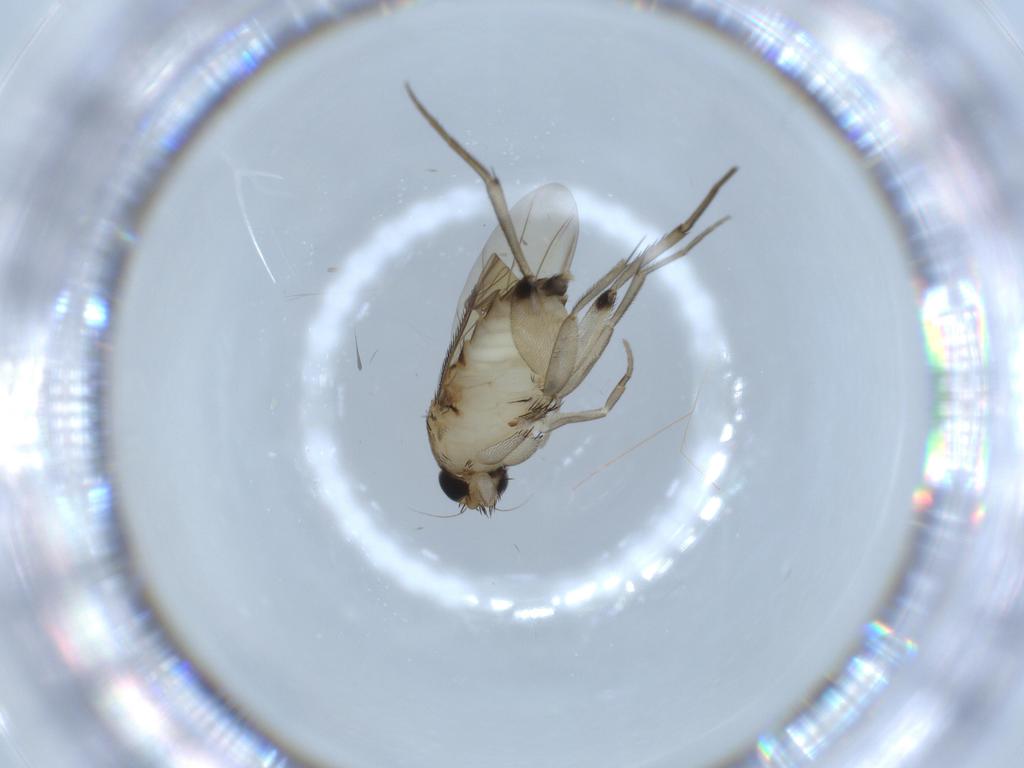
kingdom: Animalia
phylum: Arthropoda
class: Insecta
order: Diptera
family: Phoridae
